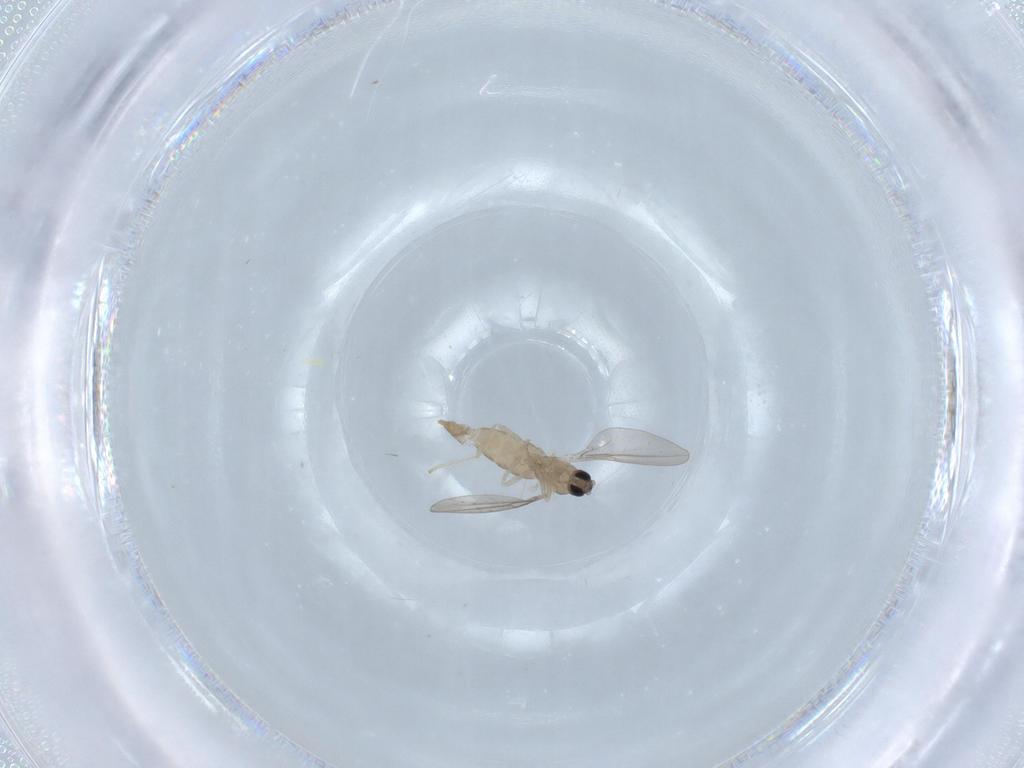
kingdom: Animalia
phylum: Arthropoda
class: Insecta
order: Diptera
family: Cecidomyiidae
